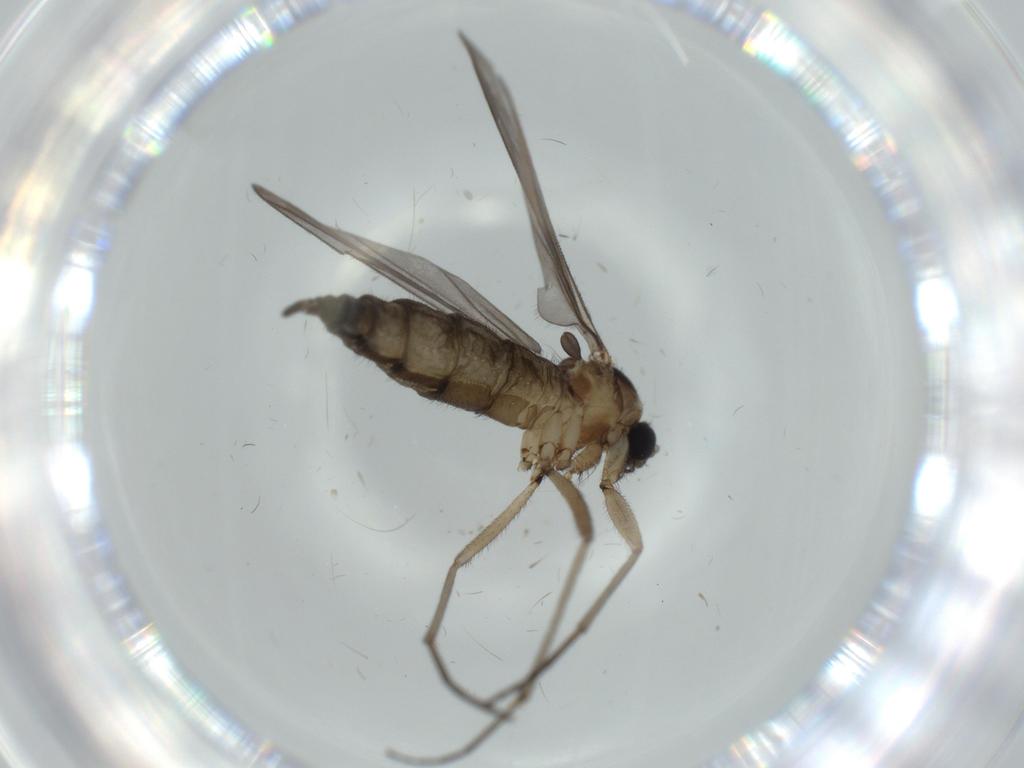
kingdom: Animalia
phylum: Arthropoda
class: Insecta
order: Diptera
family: Sciaridae
